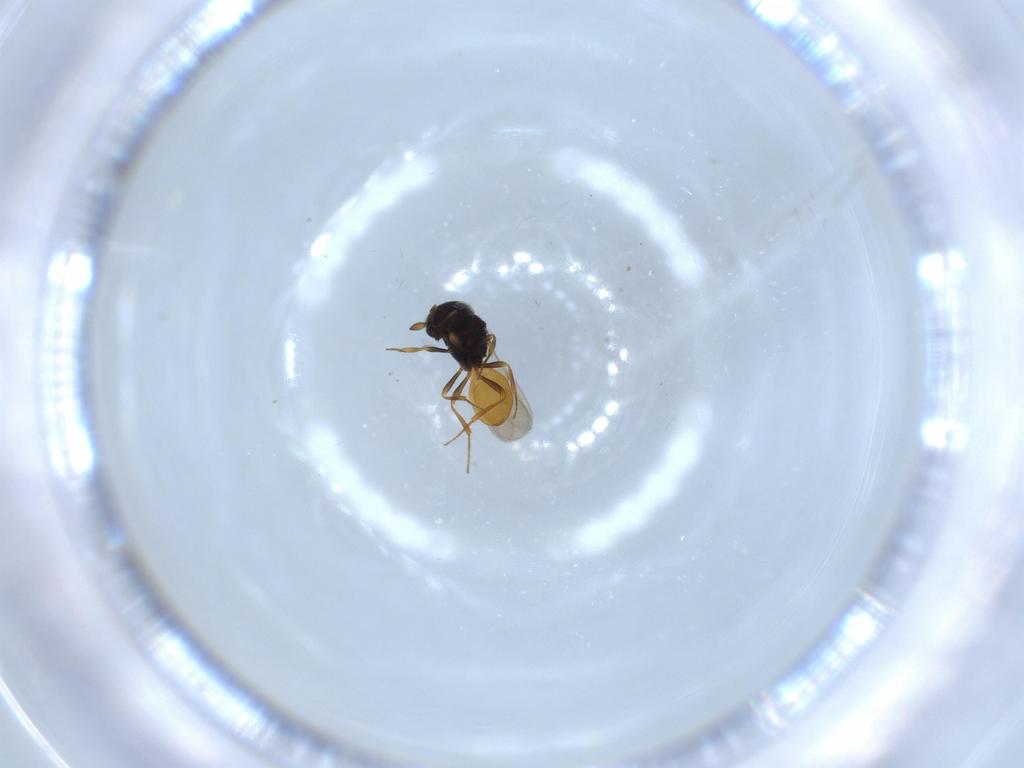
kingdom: Animalia
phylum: Arthropoda
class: Insecta
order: Hymenoptera
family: Scelionidae
